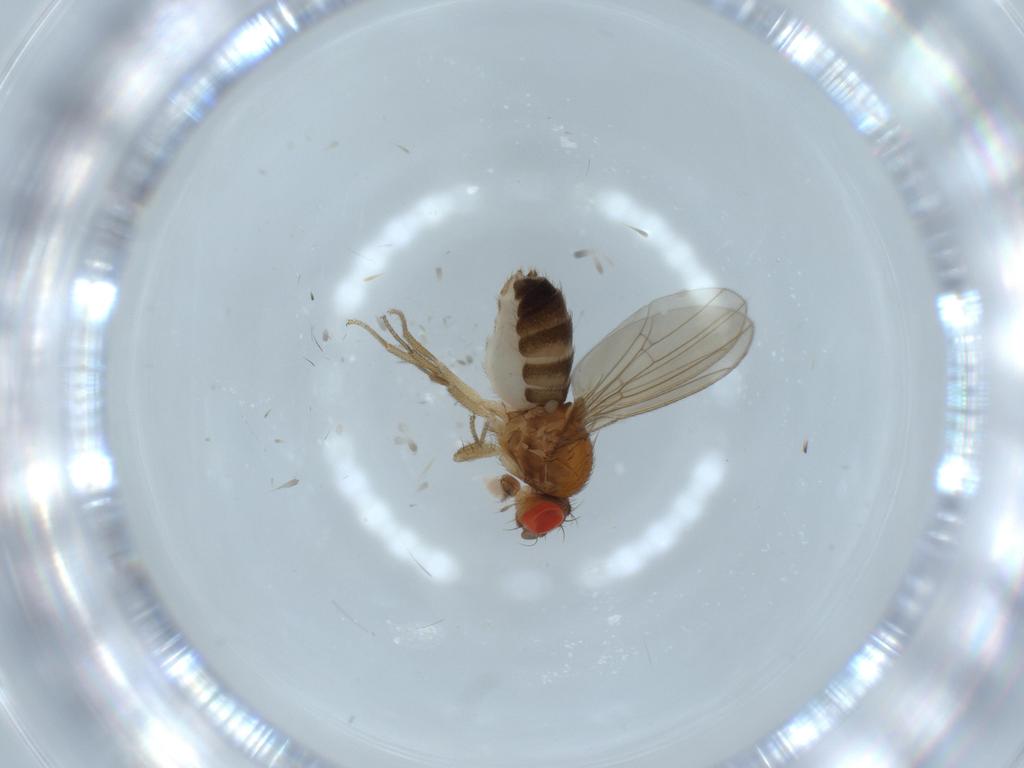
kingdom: Animalia
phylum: Arthropoda
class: Insecta
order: Diptera
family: Drosophilidae
